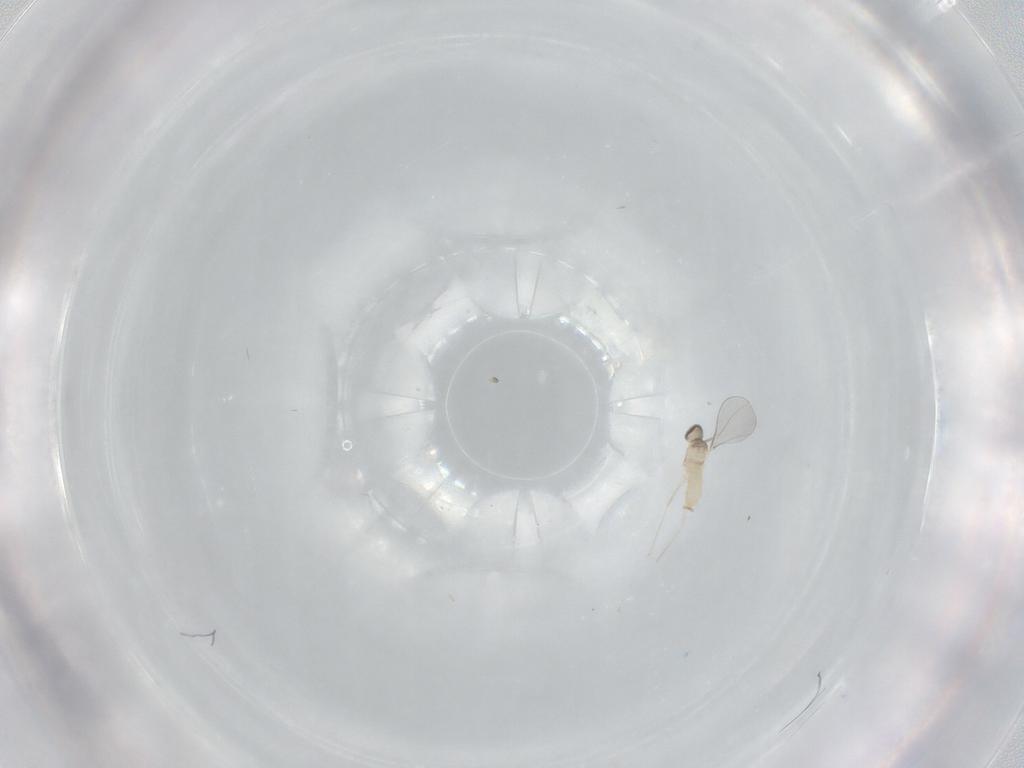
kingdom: Animalia
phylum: Arthropoda
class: Insecta
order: Diptera
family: Cecidomyiidae
